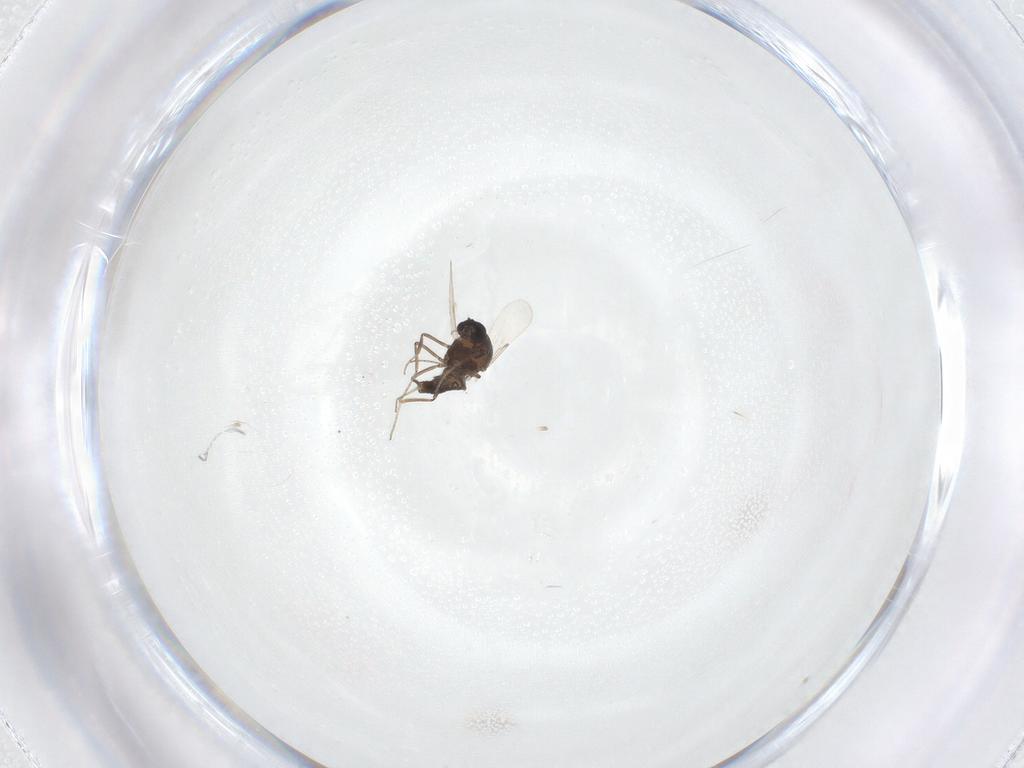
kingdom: Animalia
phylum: Arthropoda
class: Insecta
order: Diptera
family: Ceratopogonidae
